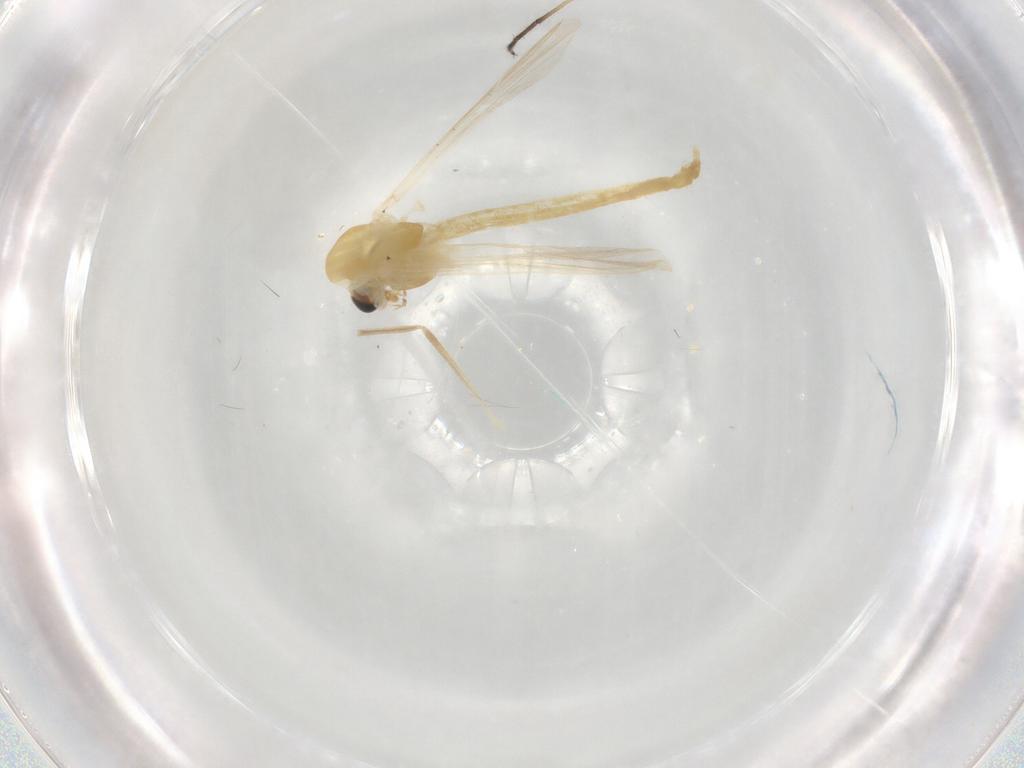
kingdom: Animalia
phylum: Arthropoda
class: Insecta
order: Diptera
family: Chironomidae
